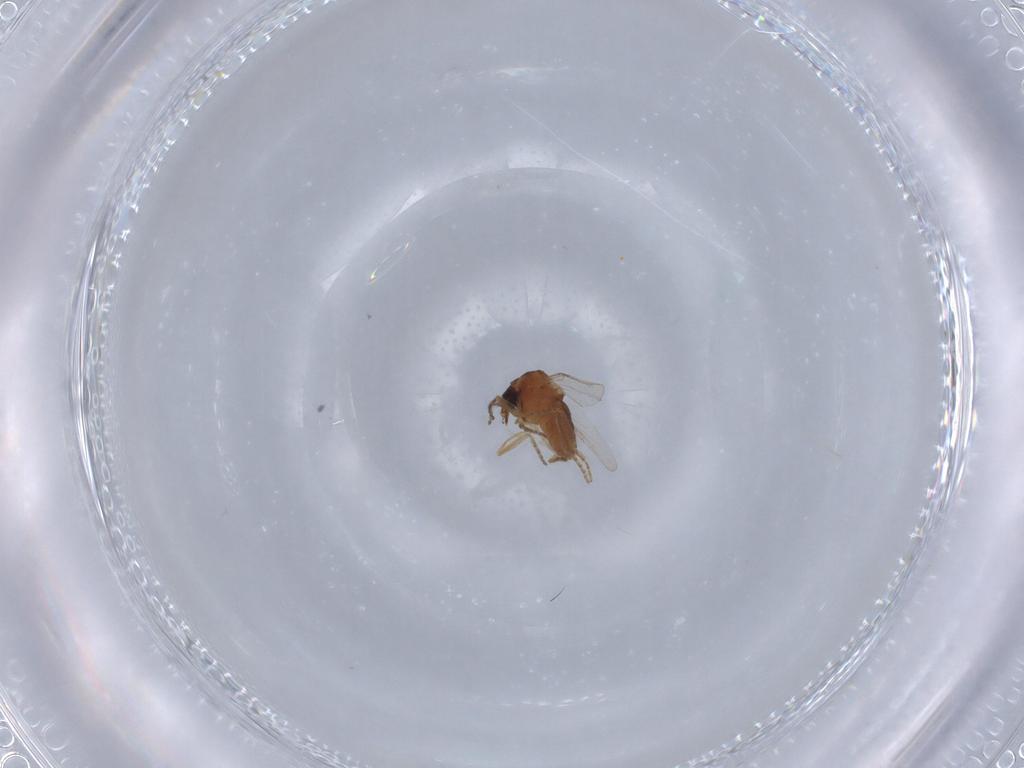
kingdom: Animalia
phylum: Arthropoda
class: Insecta
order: Diptera
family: Ceratopogonidae
